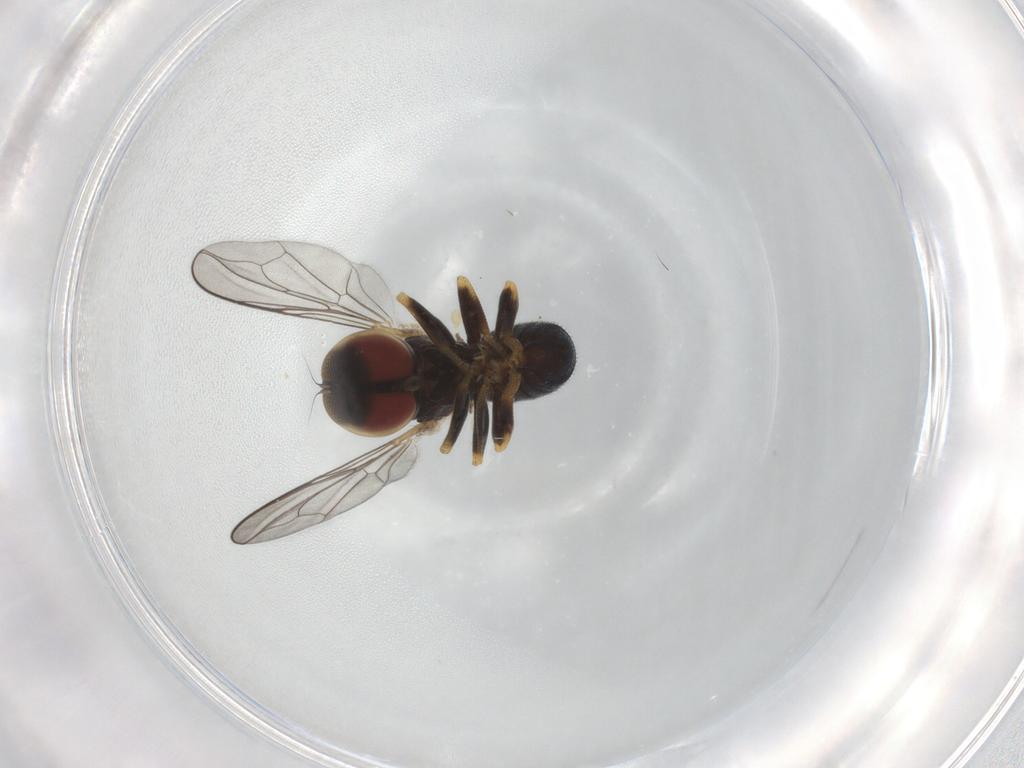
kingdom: Animalia
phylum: Arthropoda
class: Insecta
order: Diptera
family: Pipunculidae
